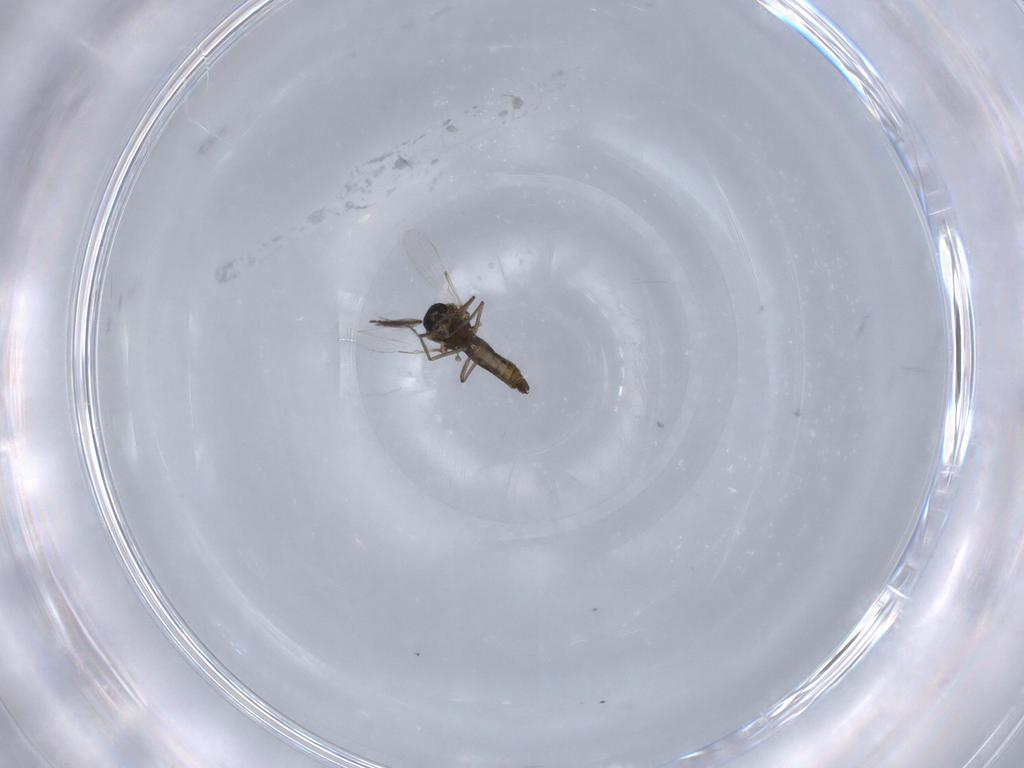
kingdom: Animalia
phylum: Arthropoda
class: Insecta
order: Diptera
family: Ceratopogonidae
